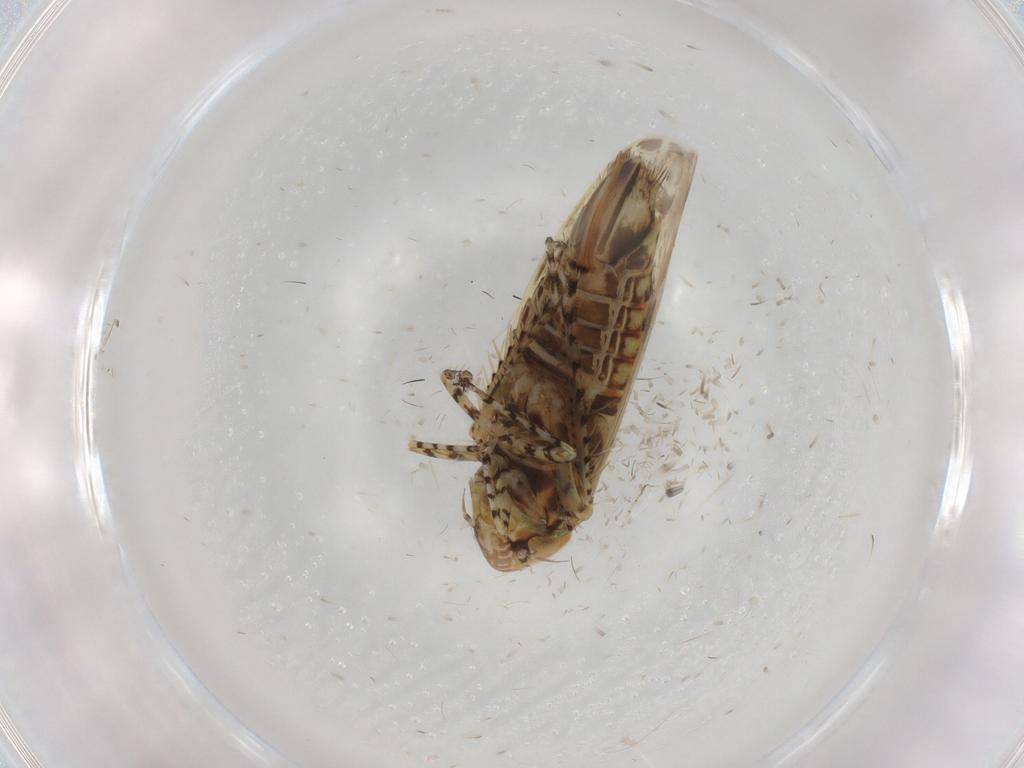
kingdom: Animalia
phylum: Arthropoda
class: Insecta
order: Hemiptera
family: Cicadellidae
